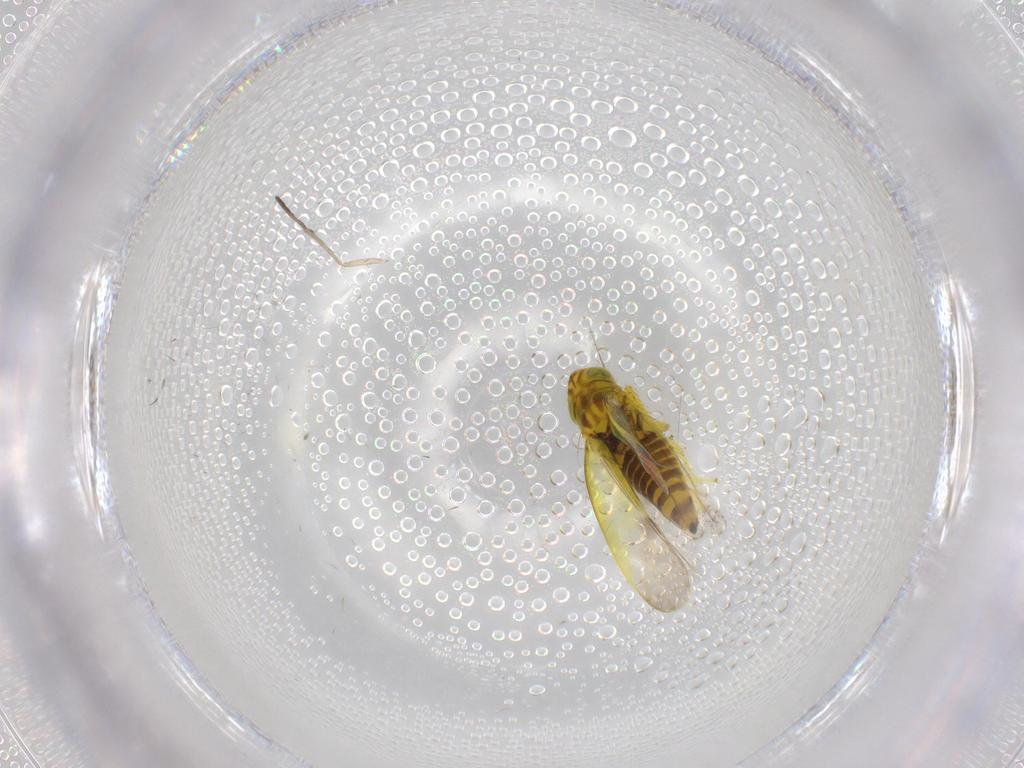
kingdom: Animalia
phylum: Arthropoda
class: Insecta
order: Hemiptera
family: Cicadellidae
